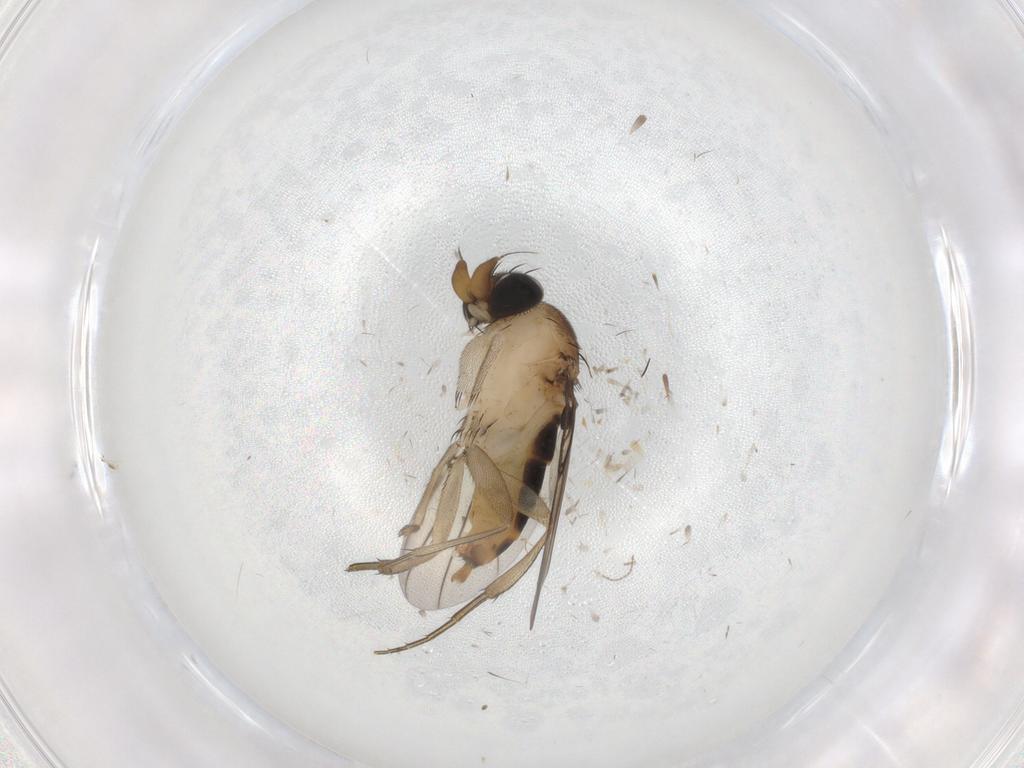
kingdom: Animalia
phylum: Arthropoda
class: Insecta
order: Diptera
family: Phoridae
